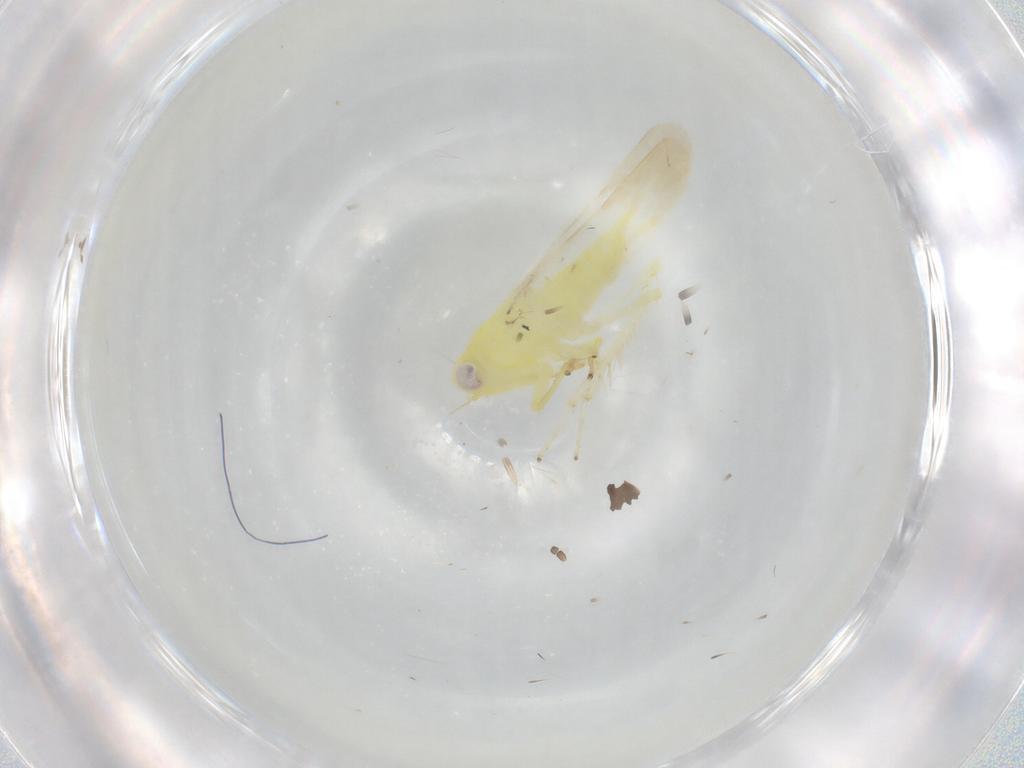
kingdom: Animalia
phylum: Arthropoda
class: Insecta
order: Hemiptera
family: Cicadellidae
